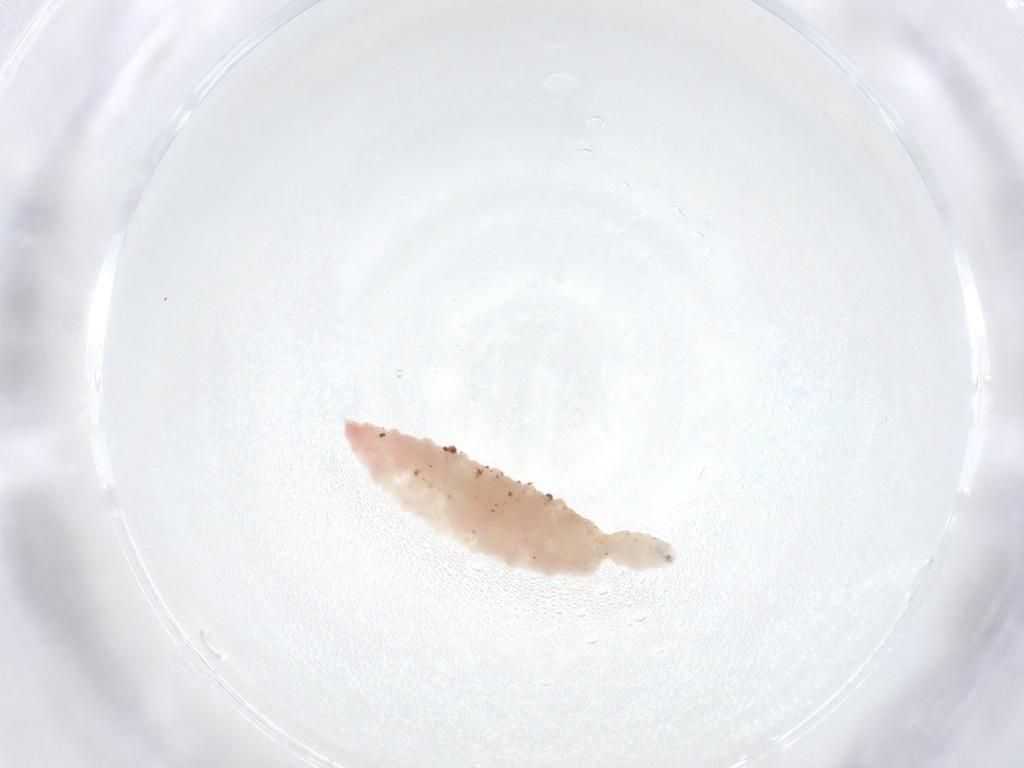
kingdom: Animalia
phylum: Arthropoda
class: Insecta
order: Diptera
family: Cecidomyiidae
